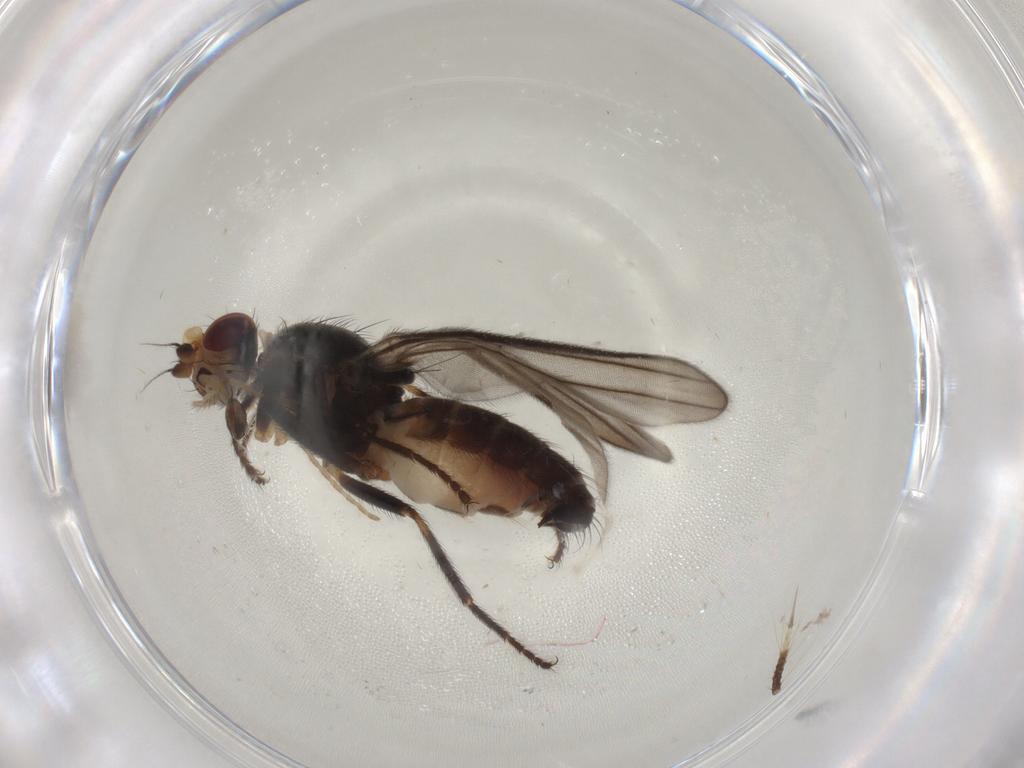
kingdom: Animalia
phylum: Arthropoda
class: Insecta
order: Diptera
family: Chloropidae
